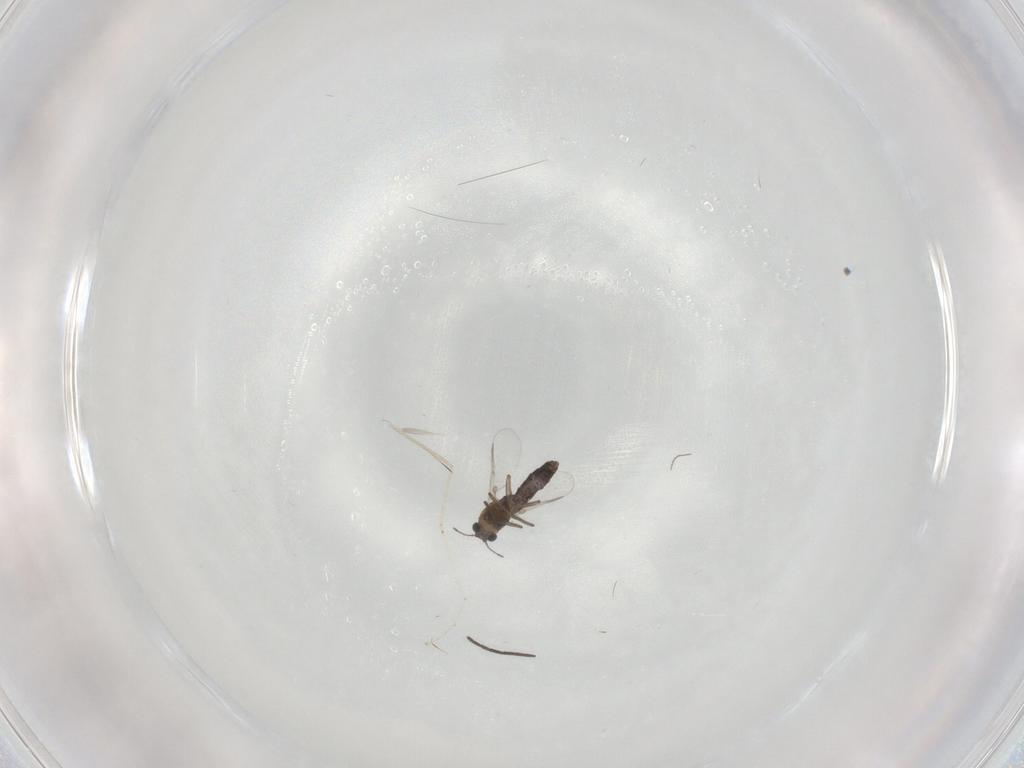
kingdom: Animalia
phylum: Arthropoda
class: Insecta
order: Diptera
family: Chironomidae
